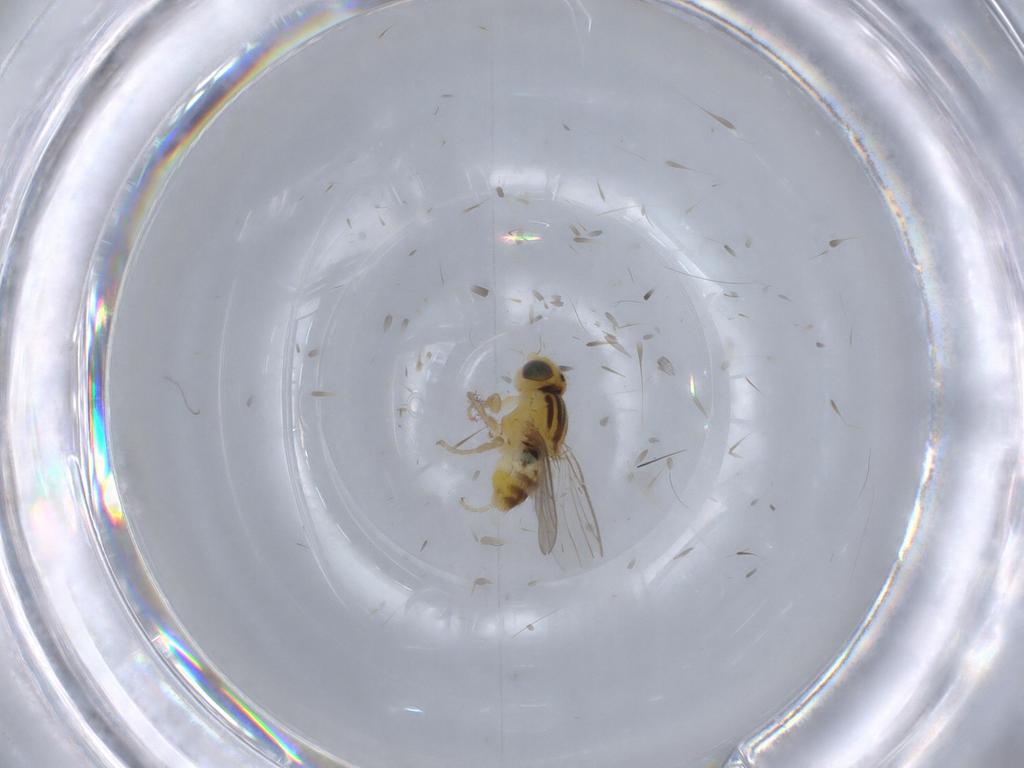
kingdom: Animalia
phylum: Arthropoda
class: Insecta
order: Diptera
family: Chloropidae
